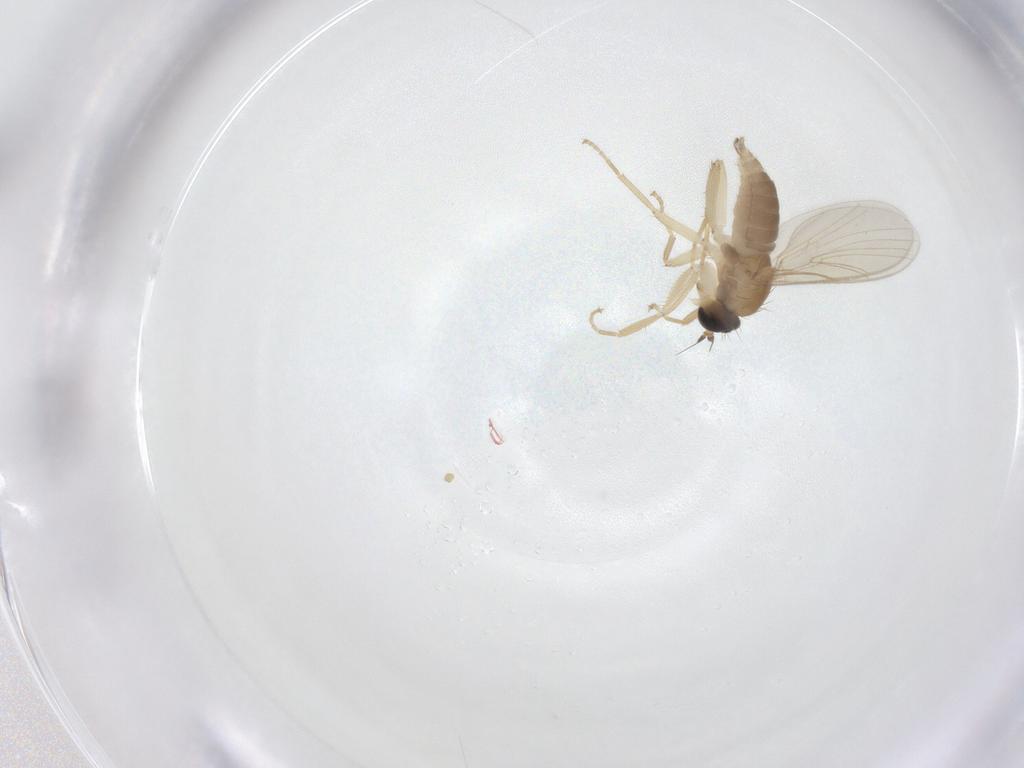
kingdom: Animalia
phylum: Arthropoda
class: Insecta
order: Diptera
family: Hybotidae
